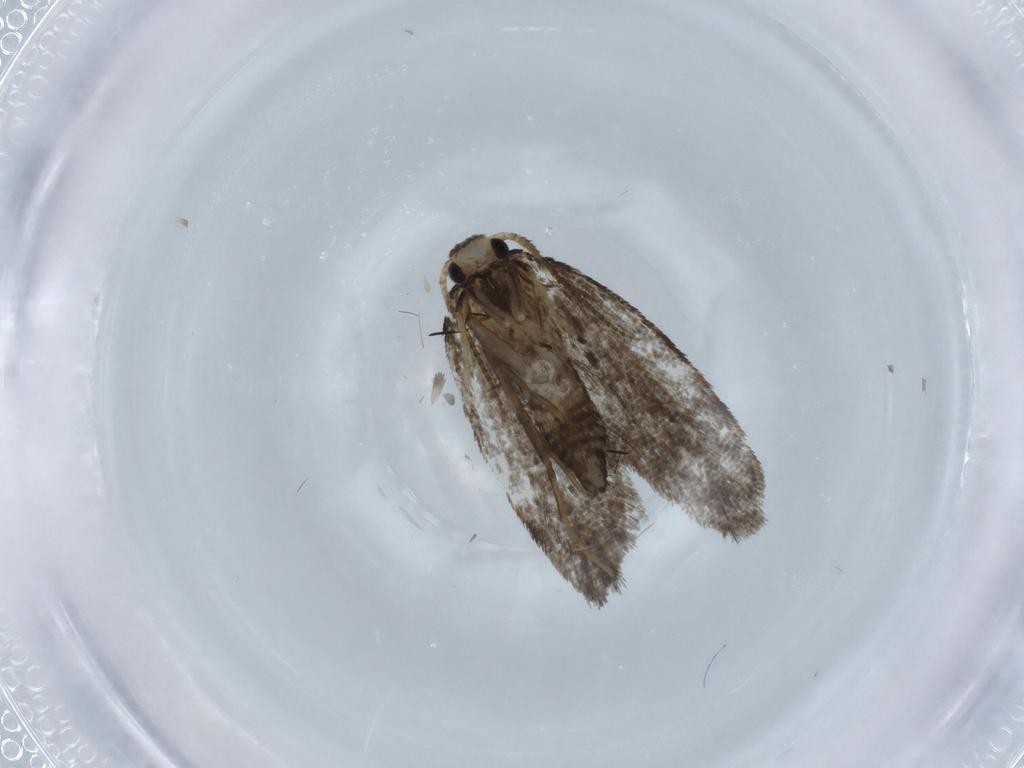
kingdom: Animalia
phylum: Arthropoda
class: Insecta
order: Lepidoptera
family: Psychidae
